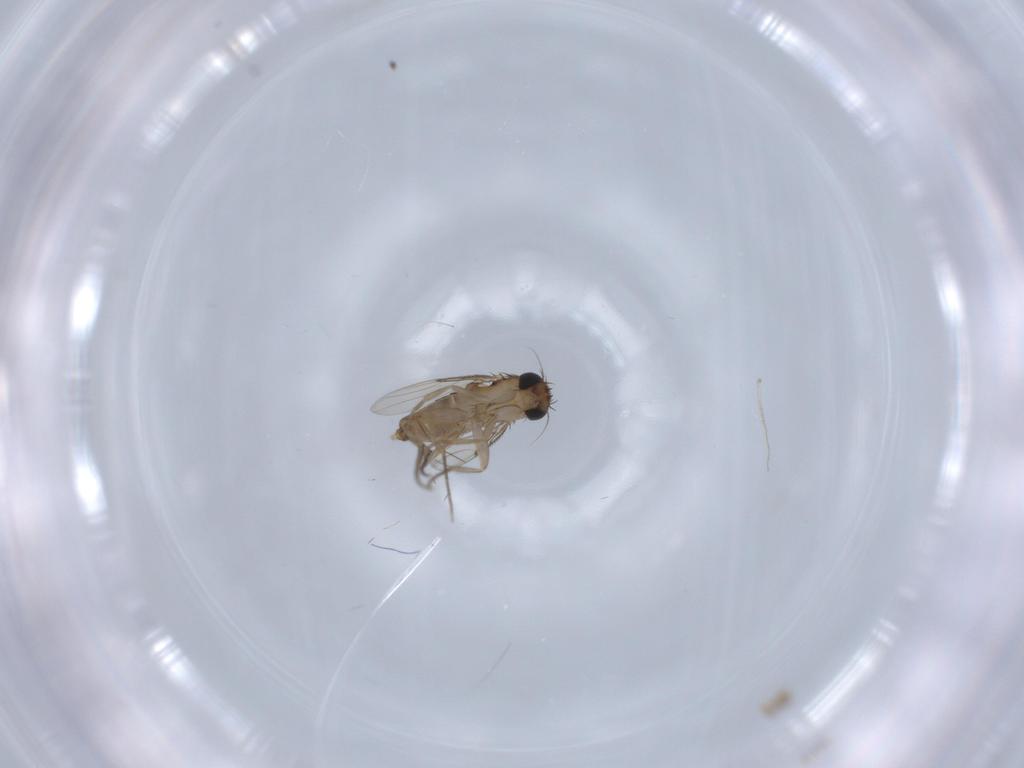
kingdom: Animalia
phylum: Arthropoda
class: Insecta
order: Diptera
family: Phoridae
